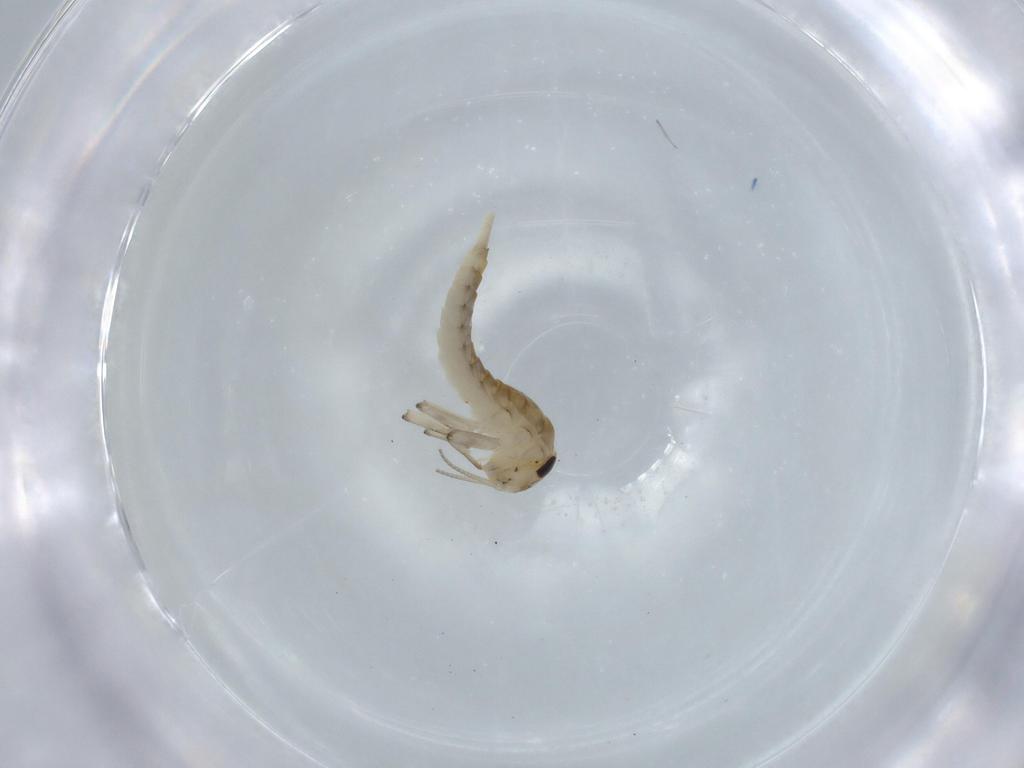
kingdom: Animalia
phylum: Arthropoda
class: Insecta
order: Ephemeroptera
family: Baetidae
